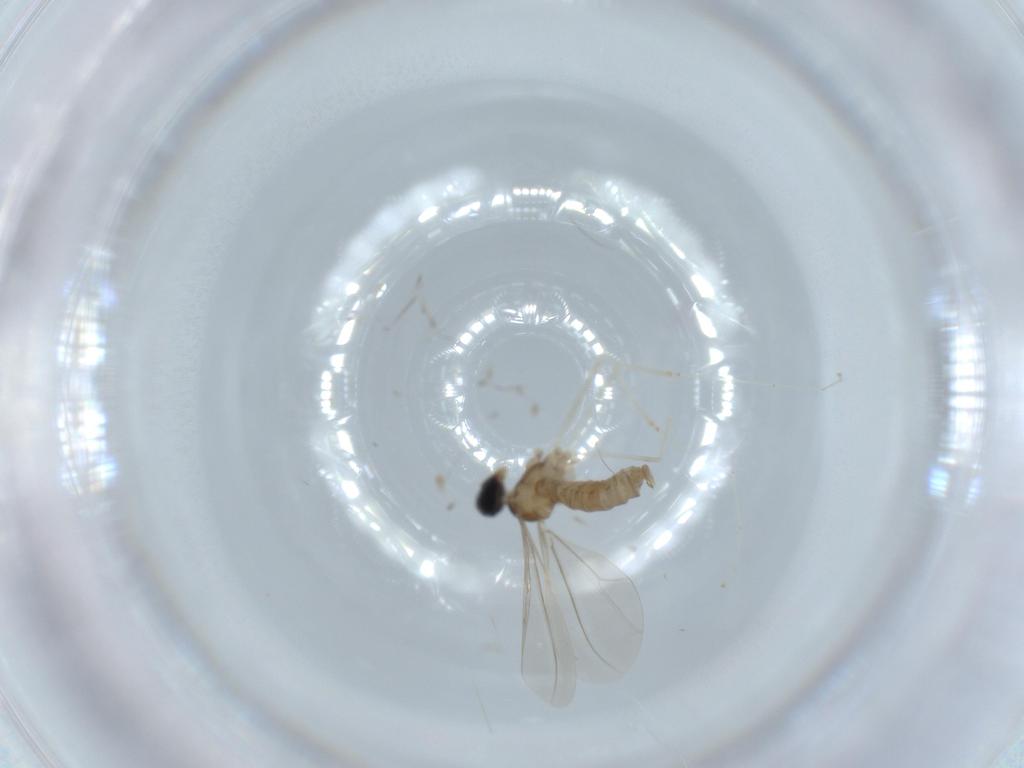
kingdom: Animalia
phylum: Arthropoda
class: Insecta
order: Diptera
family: Cecidomyiidae
